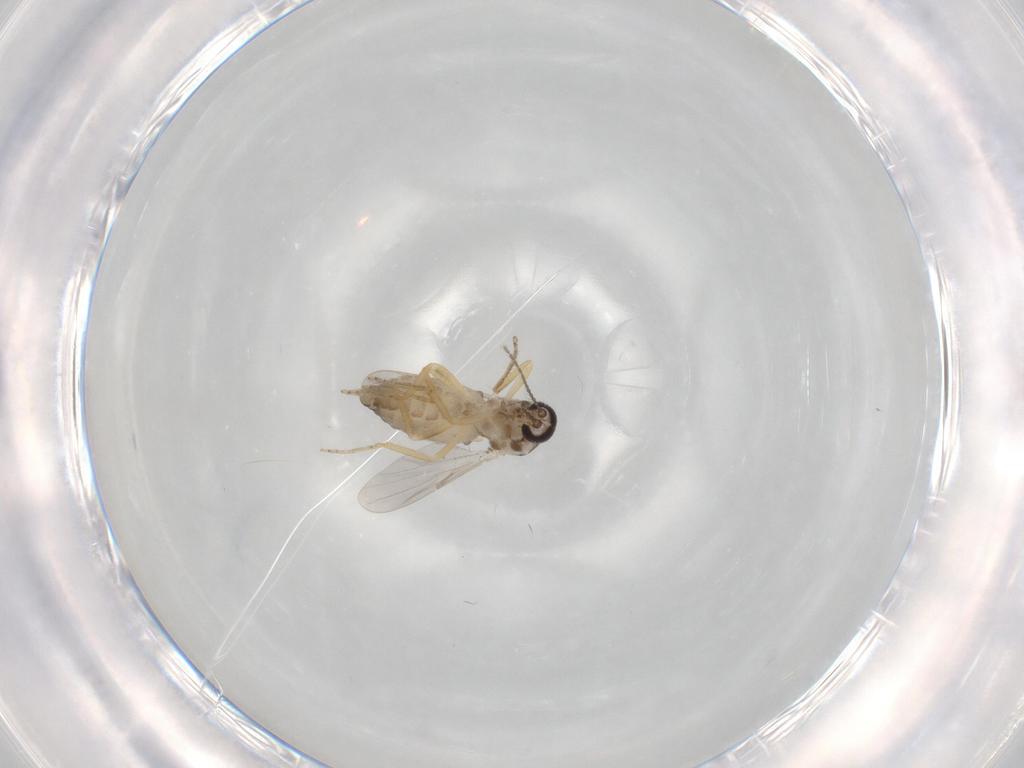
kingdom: Animalia
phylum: Arthropoda
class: Insecta
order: Diptera
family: Ceratopogonidae
